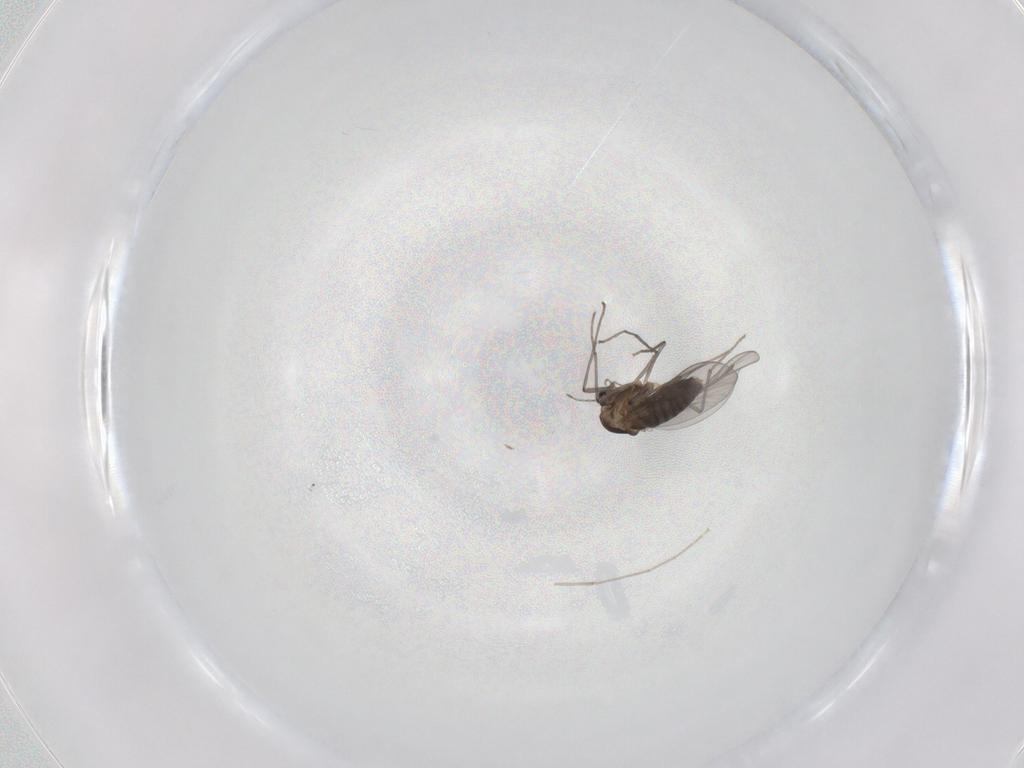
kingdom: Animalia
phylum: Arthropoda
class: Insecta
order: Diptera
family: Chironomidae
